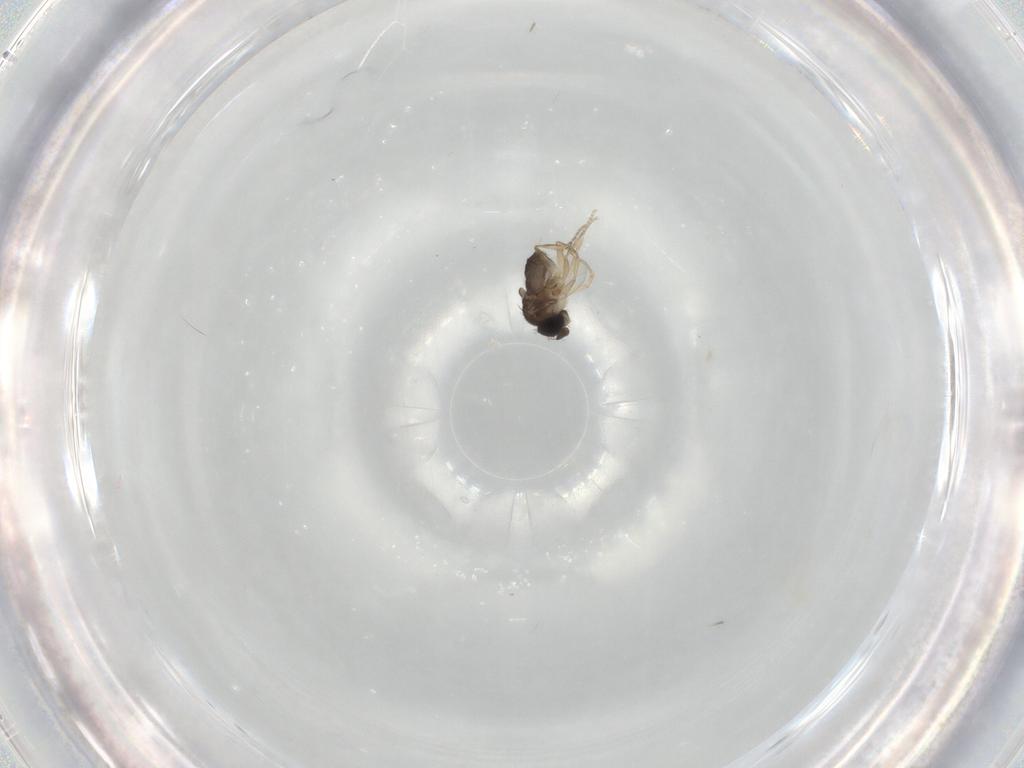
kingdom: Animalia
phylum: Arthropoda
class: Insecta
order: Diptera
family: Phoridae
